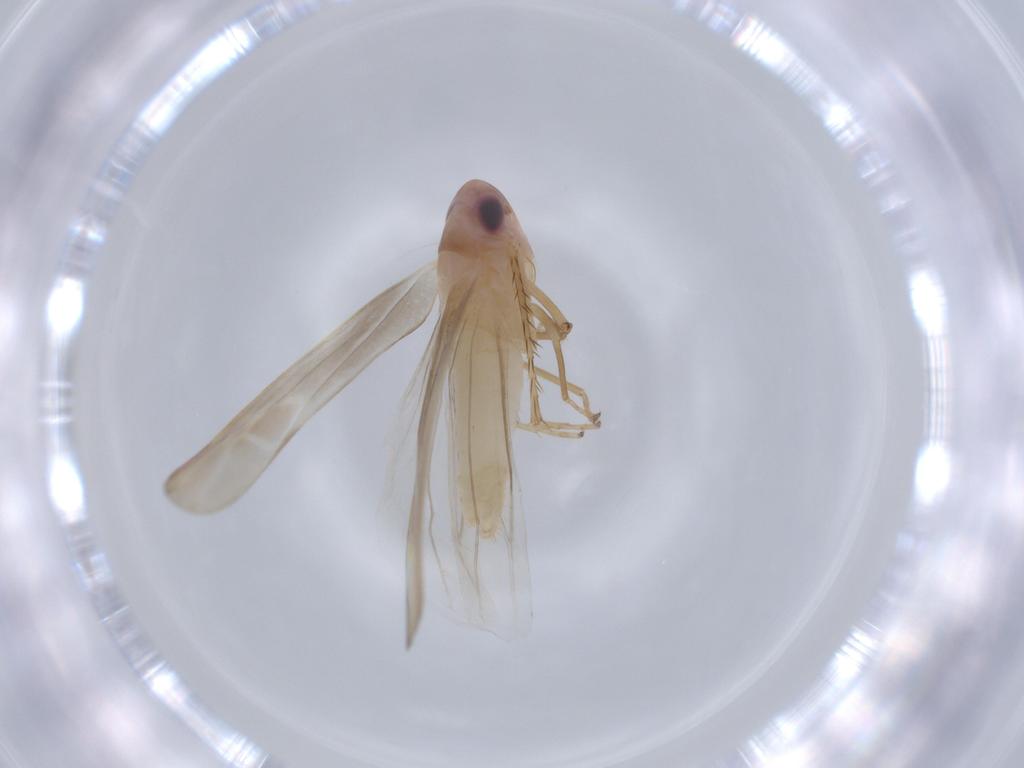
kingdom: Animalia
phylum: Arthropoda
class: Insecta
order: Hemiptera
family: Cicadellidae
